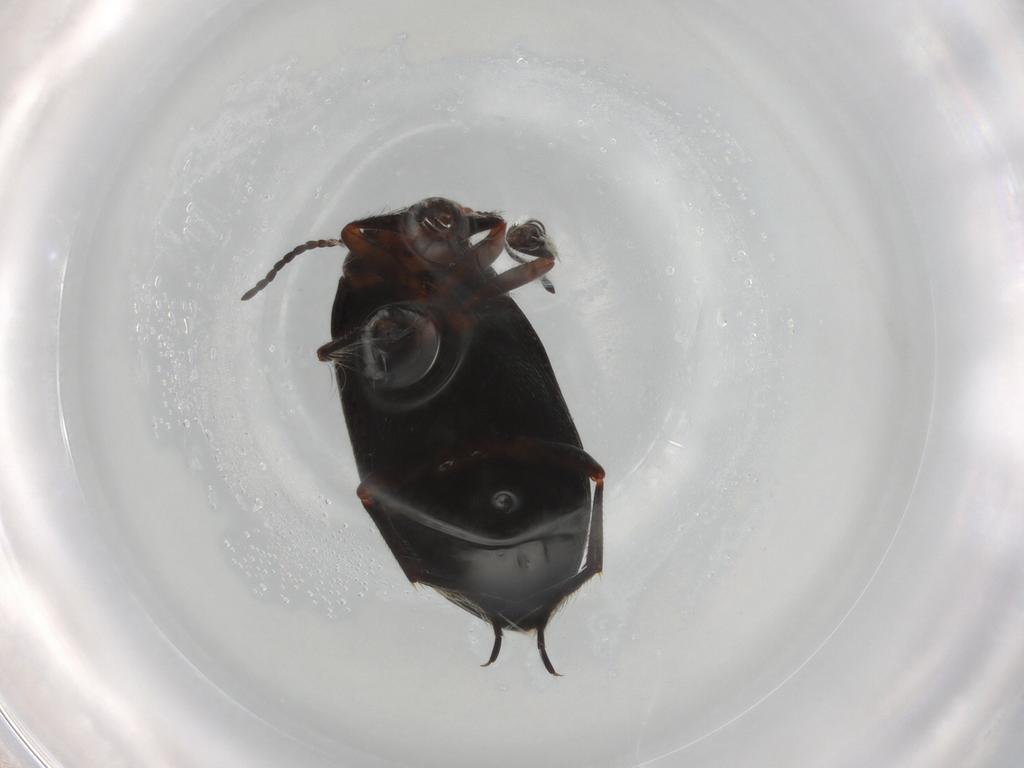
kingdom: Animalia
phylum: Arthropoda
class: Insecta
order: Coleoptera
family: Dytiscidae
